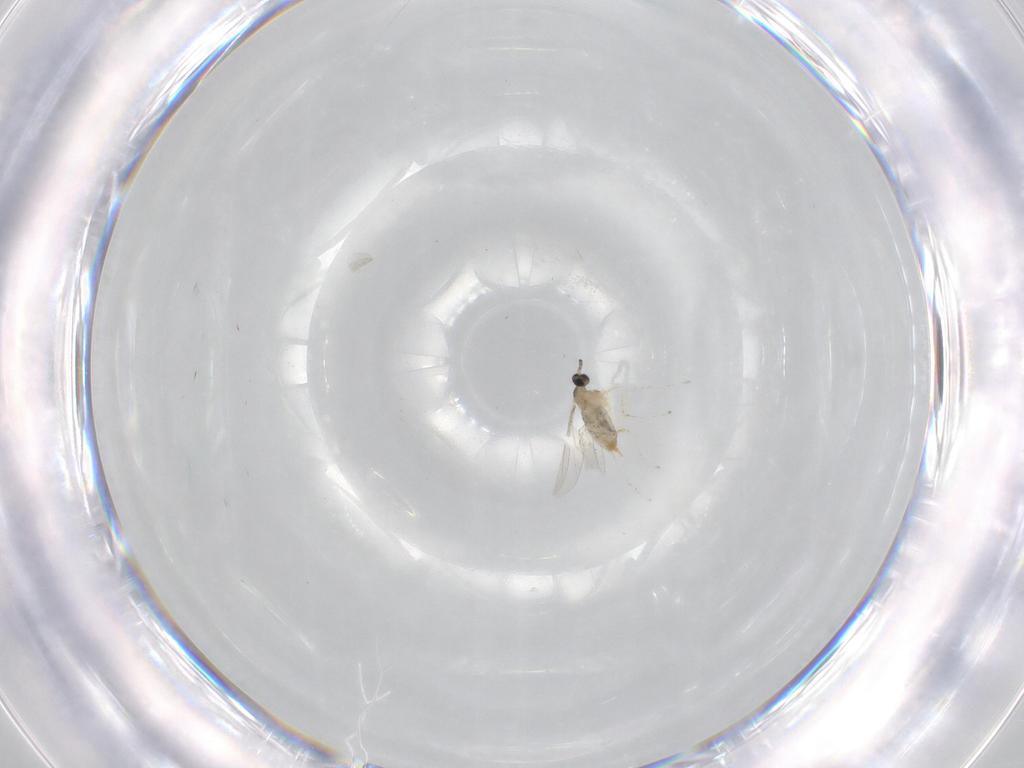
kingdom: Animalia
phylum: Arthropoda
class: Insecta
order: Diptera
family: Cecidomyiidae
